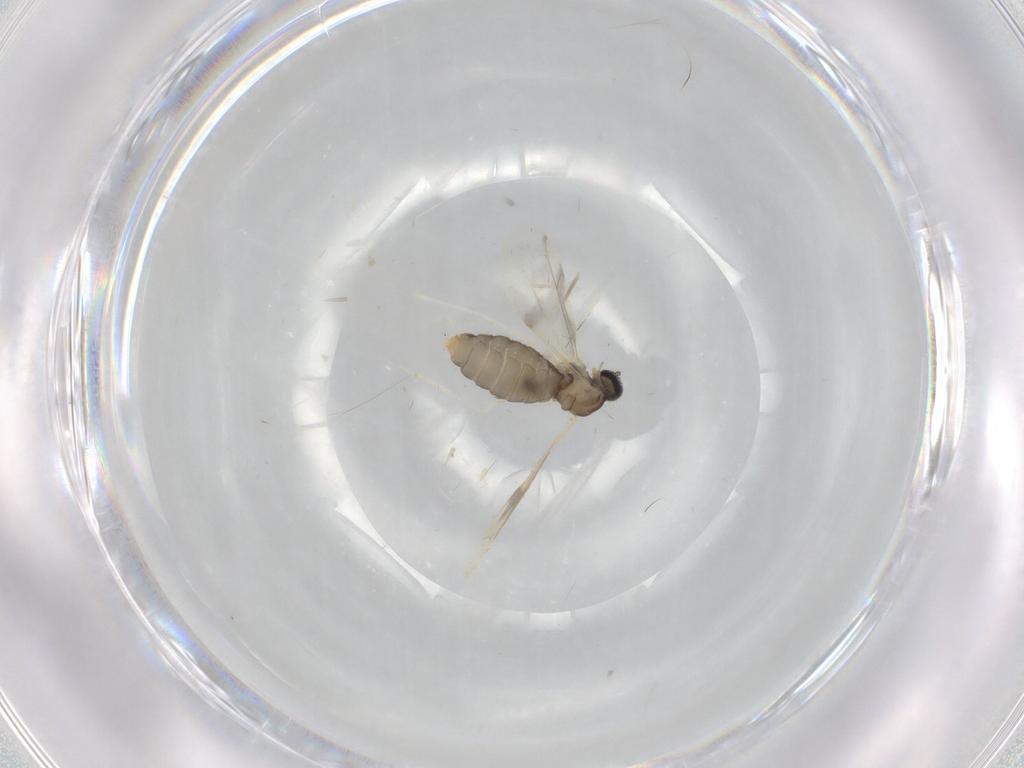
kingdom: Animalia
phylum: Arthropoda
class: Insecta
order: Diptera
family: Cecidomyiidae
